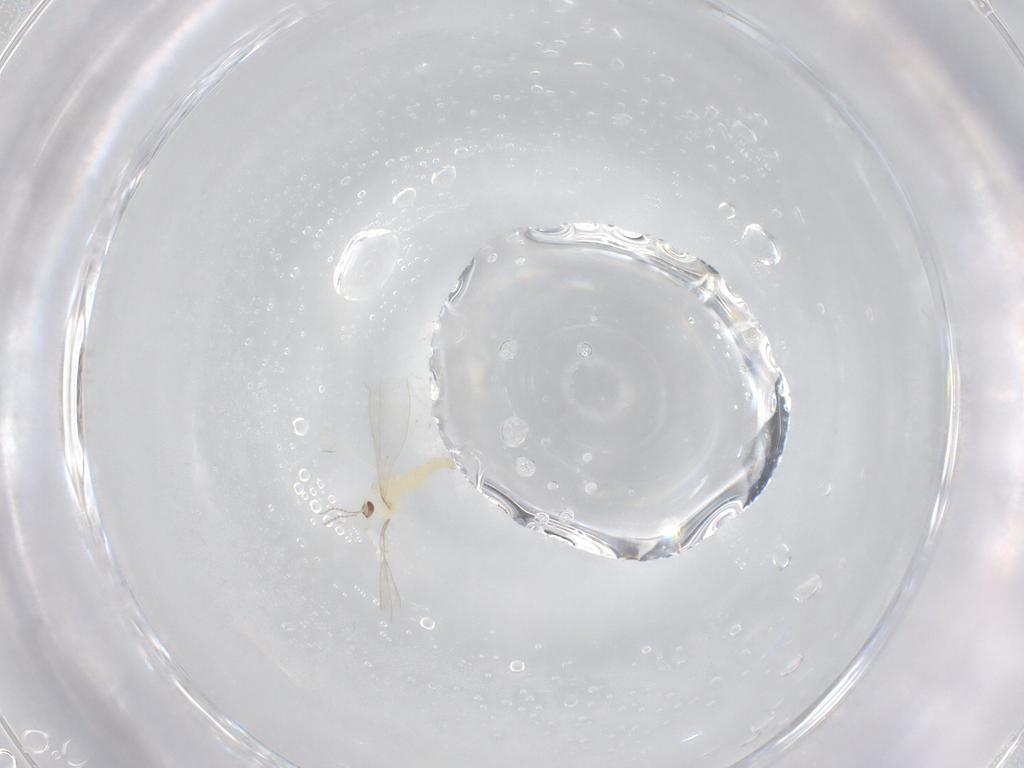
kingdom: Animalia
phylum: Arthropoda
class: Insecta
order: Diptera
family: Cecidomyiidae
